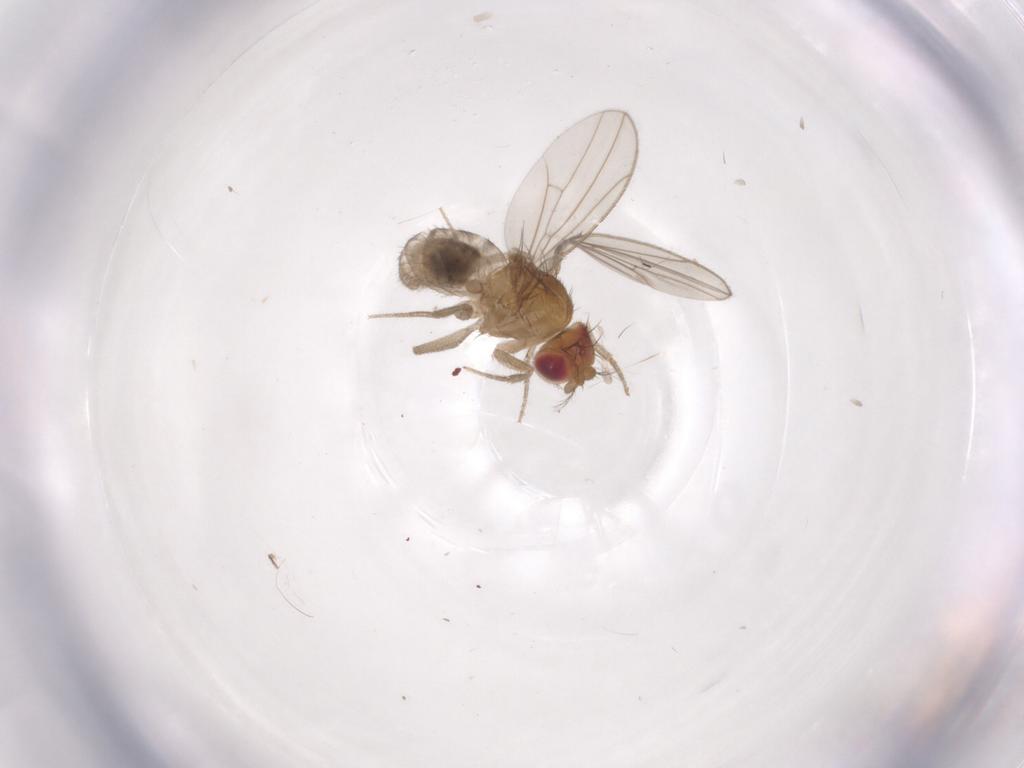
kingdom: Animalia
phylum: Arthropoda
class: Insecta
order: Diptera
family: Drosophilidae
